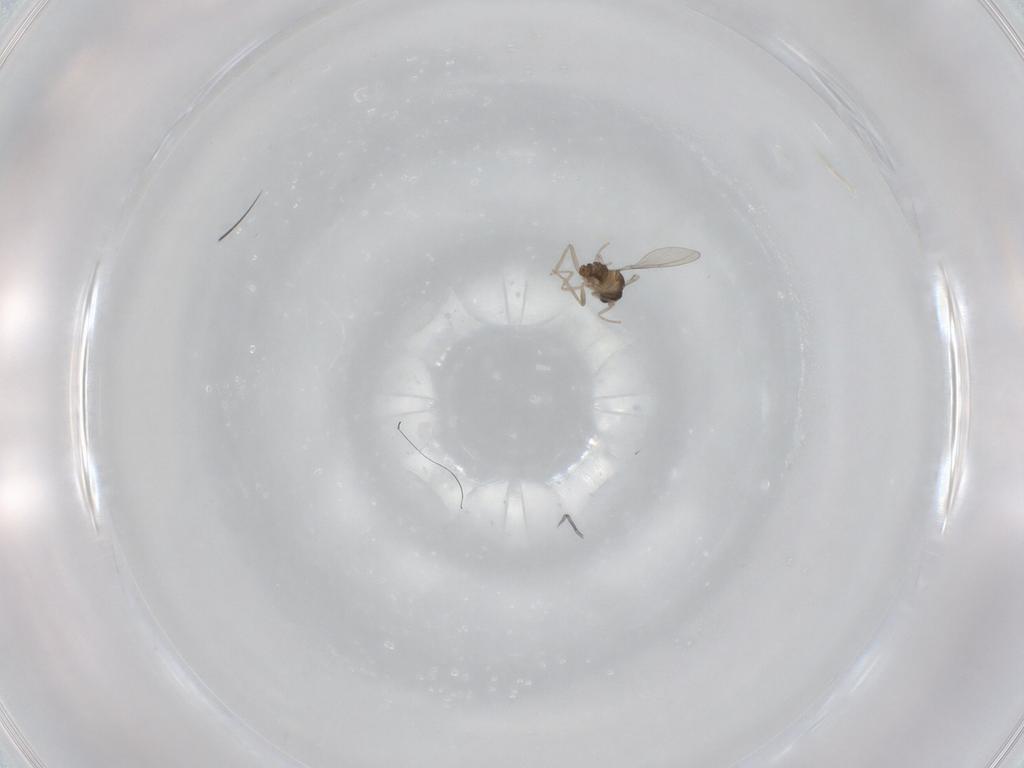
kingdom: Animalia
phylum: Arthropoda
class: Insecta
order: Diptera
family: Cecidomyiidae
